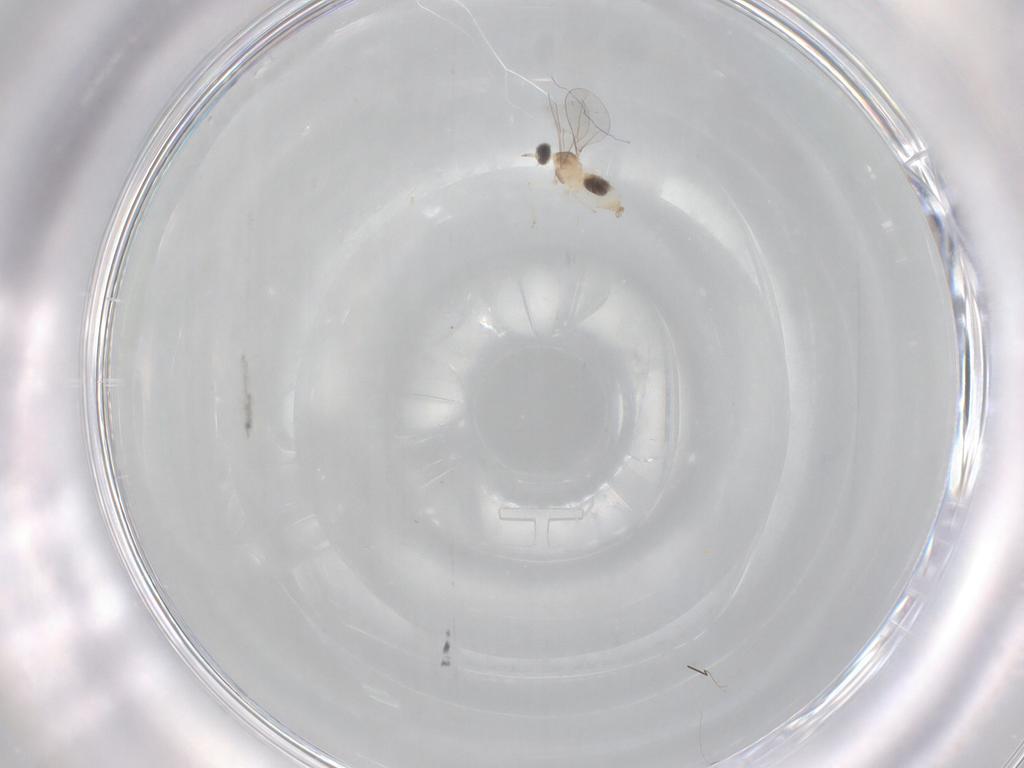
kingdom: Animalia
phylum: Arthropoda
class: Insecta
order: Diptera
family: Cecidomyiidae
